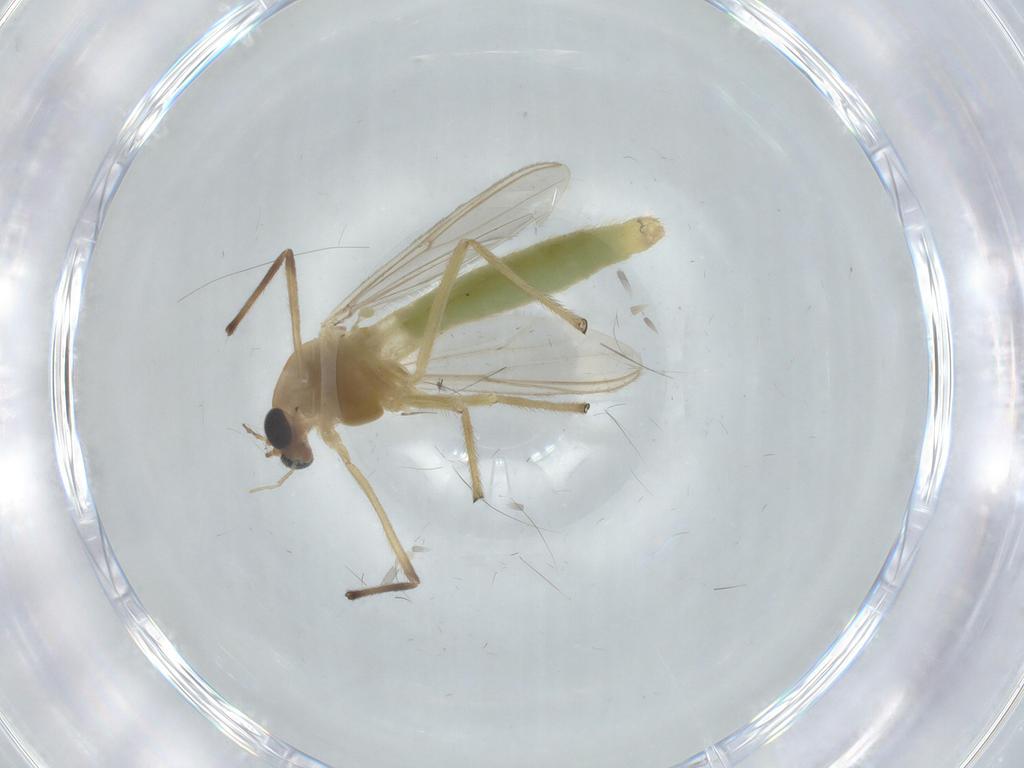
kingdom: Animalia
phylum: Arthropoda
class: Insecta
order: Diptera
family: Chironomidae
